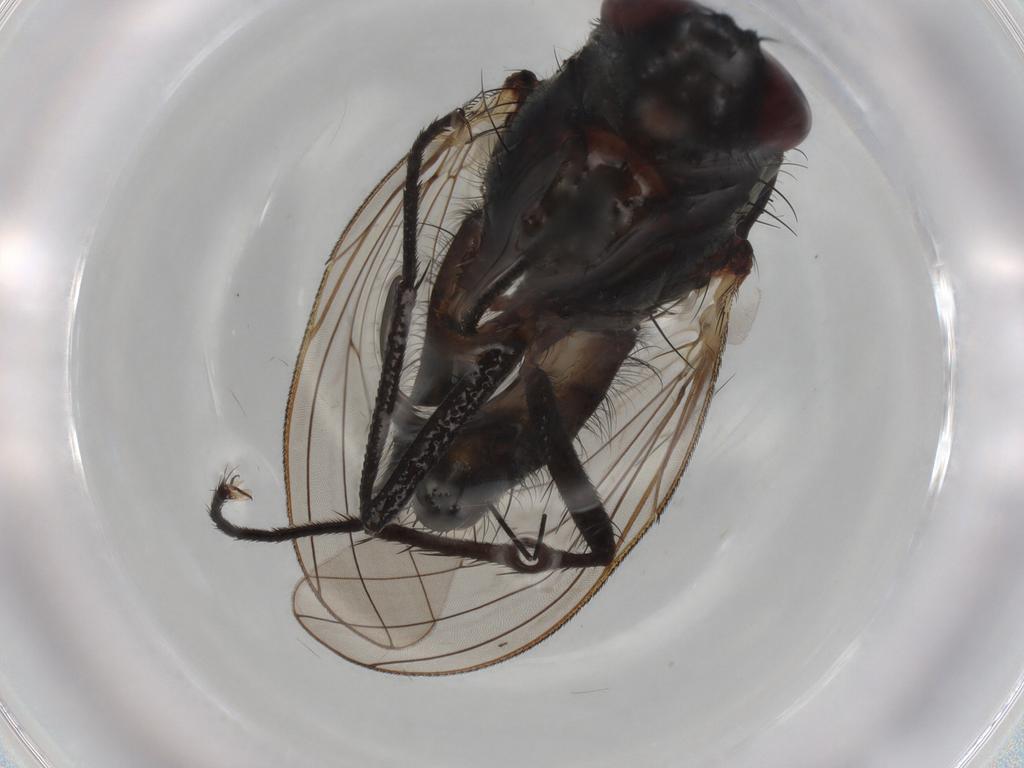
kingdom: Animalia
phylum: Arthropoda
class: Insecta
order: Diptera
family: Anthomyiidae
